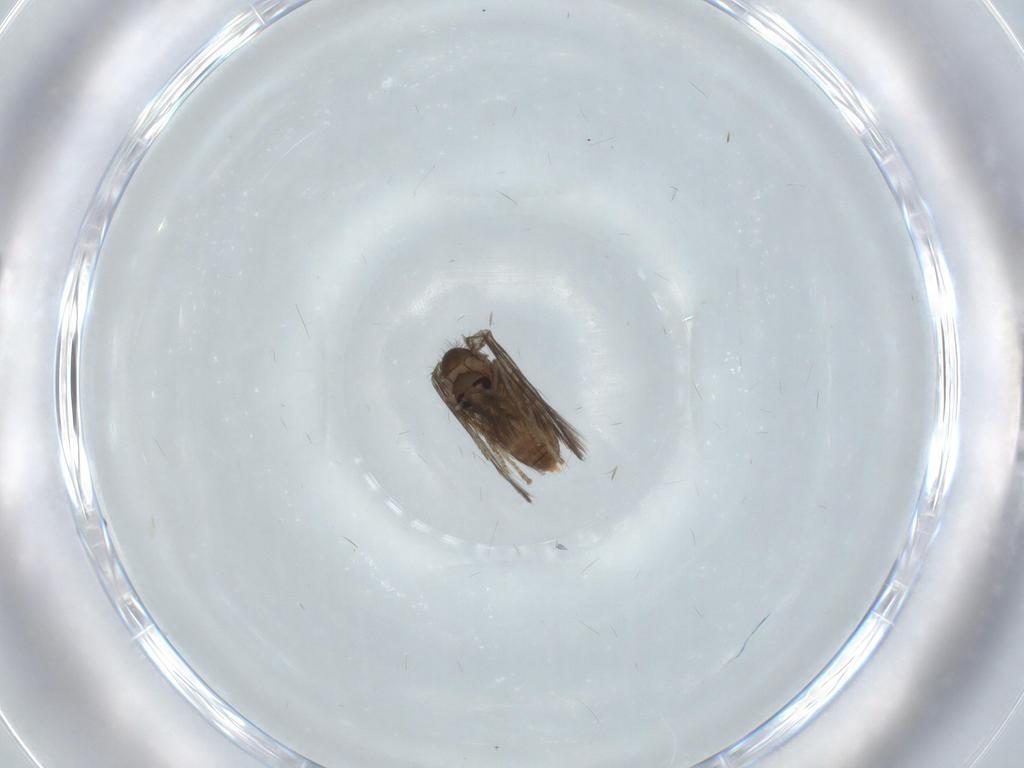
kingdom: Animalia
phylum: Arthropoda
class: Insecta
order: Diptera
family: Psychodidae
